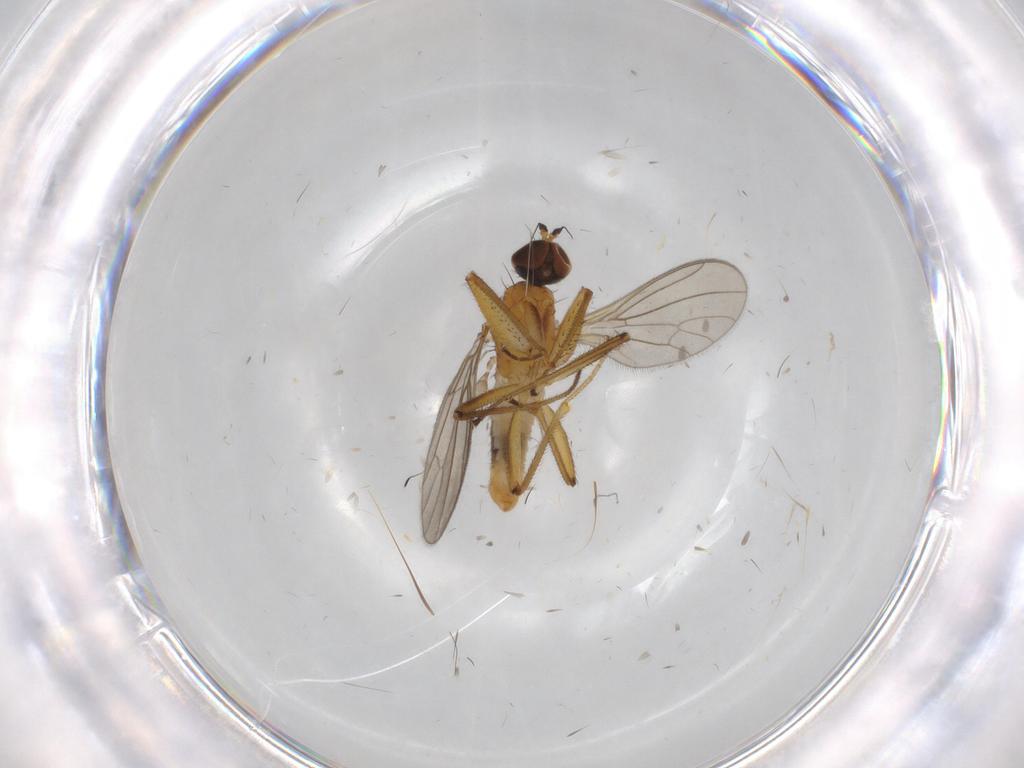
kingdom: Animalia
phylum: Arthropoda
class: Insecta
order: Diptera
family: Empididae
